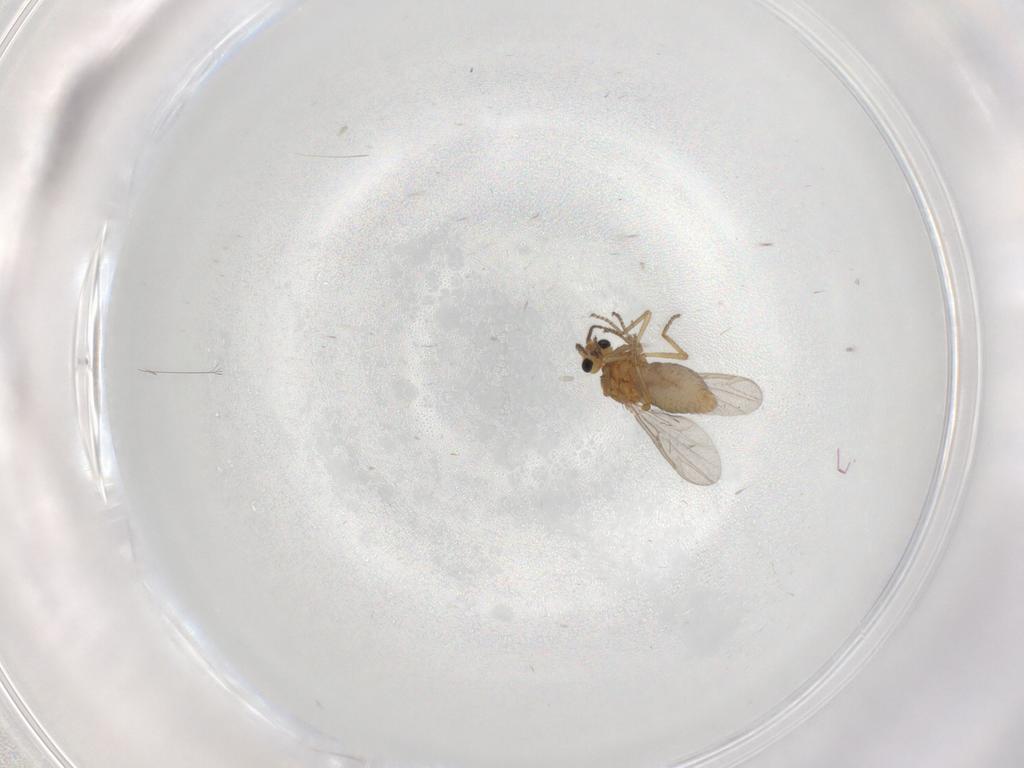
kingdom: Animalia
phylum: Arthropoda
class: Insecta
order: Diptera
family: Ceratopogonidae
